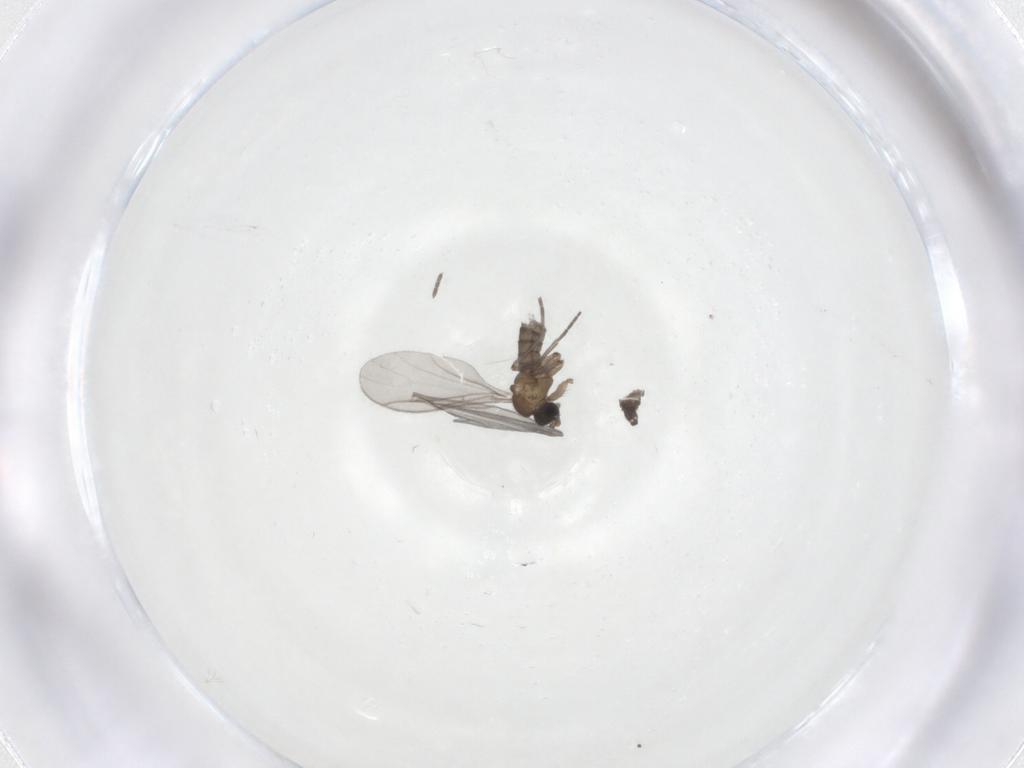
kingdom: Animalia
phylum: Arthropoda
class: Insecta
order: Diptera
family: Sciaridae
